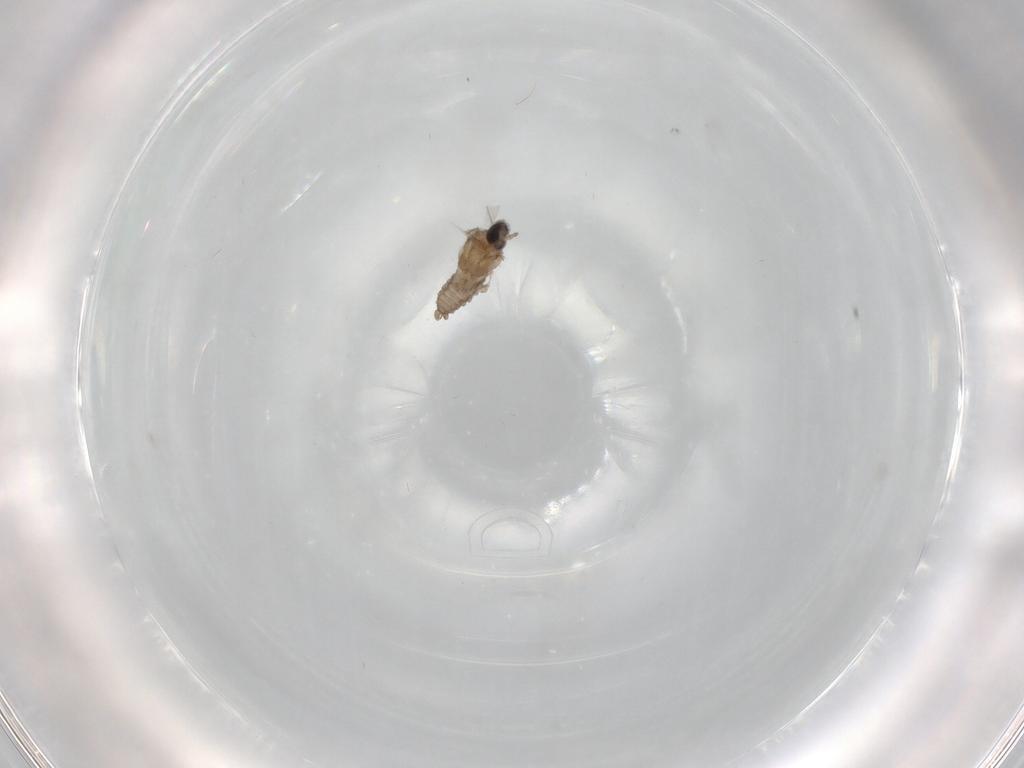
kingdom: Animalia
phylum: Arthropoda
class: Insecta
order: Diptera
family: Cecidomyiidae
